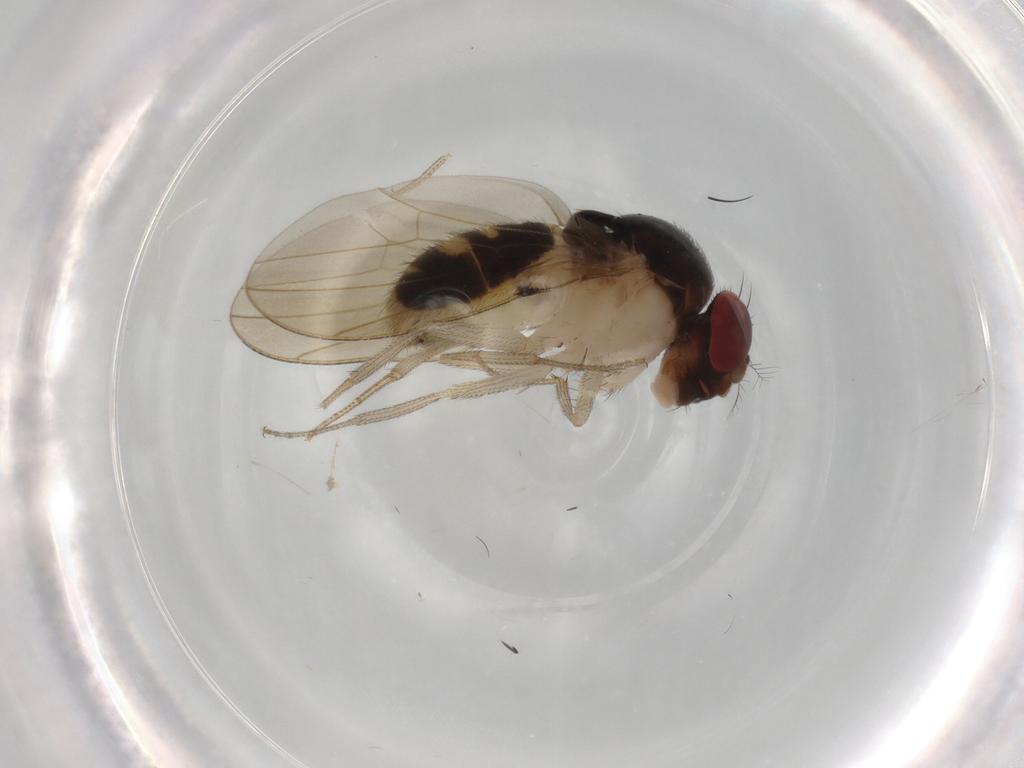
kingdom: Animalia
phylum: Arthropoda
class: Insecta
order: Diptera
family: Drosophilidae
